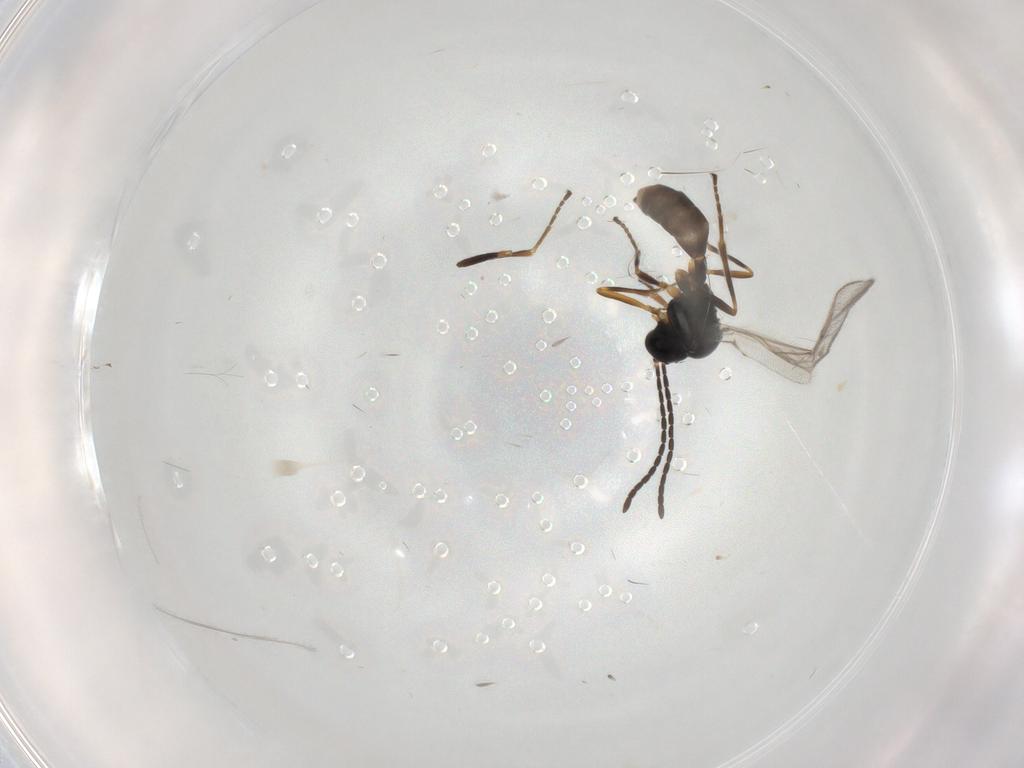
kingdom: Animalia
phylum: Arthropoda
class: Insecta
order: Hymenoptera
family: Braconidae
